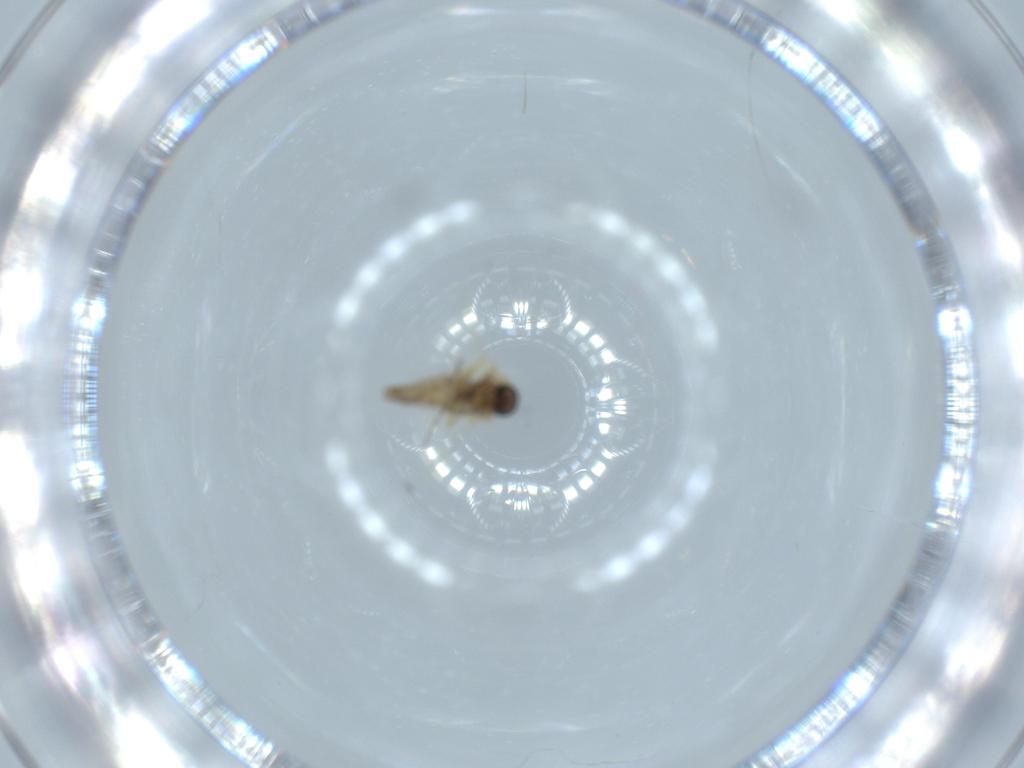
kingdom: Animalia
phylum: Arthropoda
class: Insecta
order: Diptera
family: Ceratopogonidae
